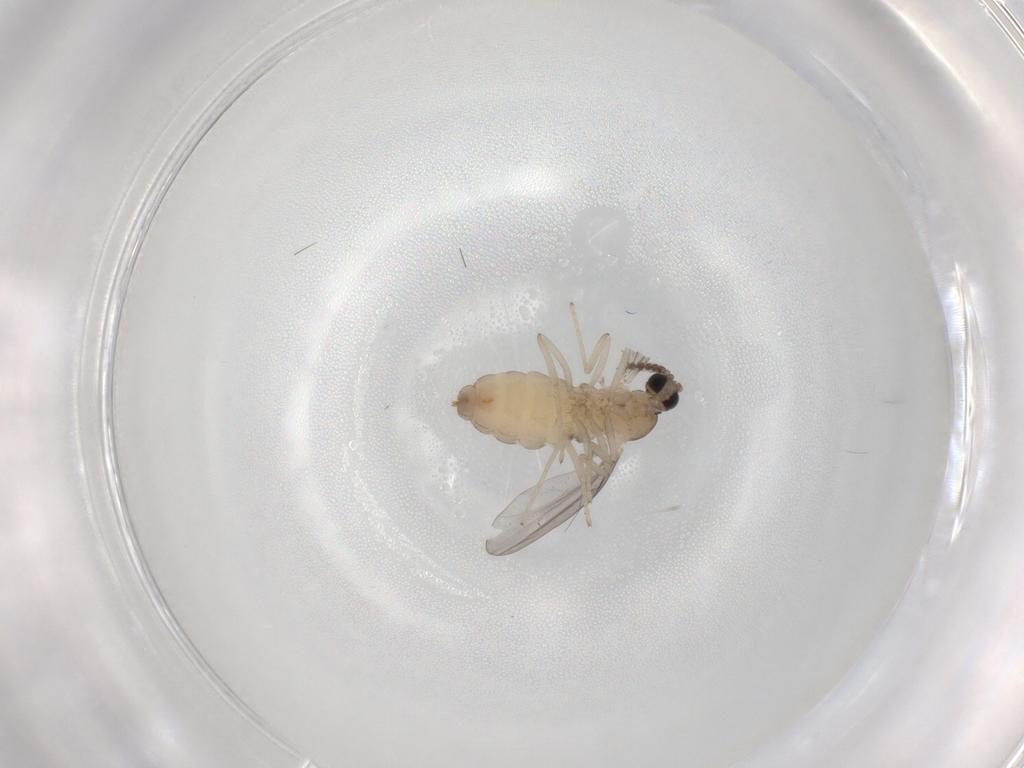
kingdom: Animalia
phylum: Arthropoda
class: Insecta
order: Diptera
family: Cecidomyiidae
